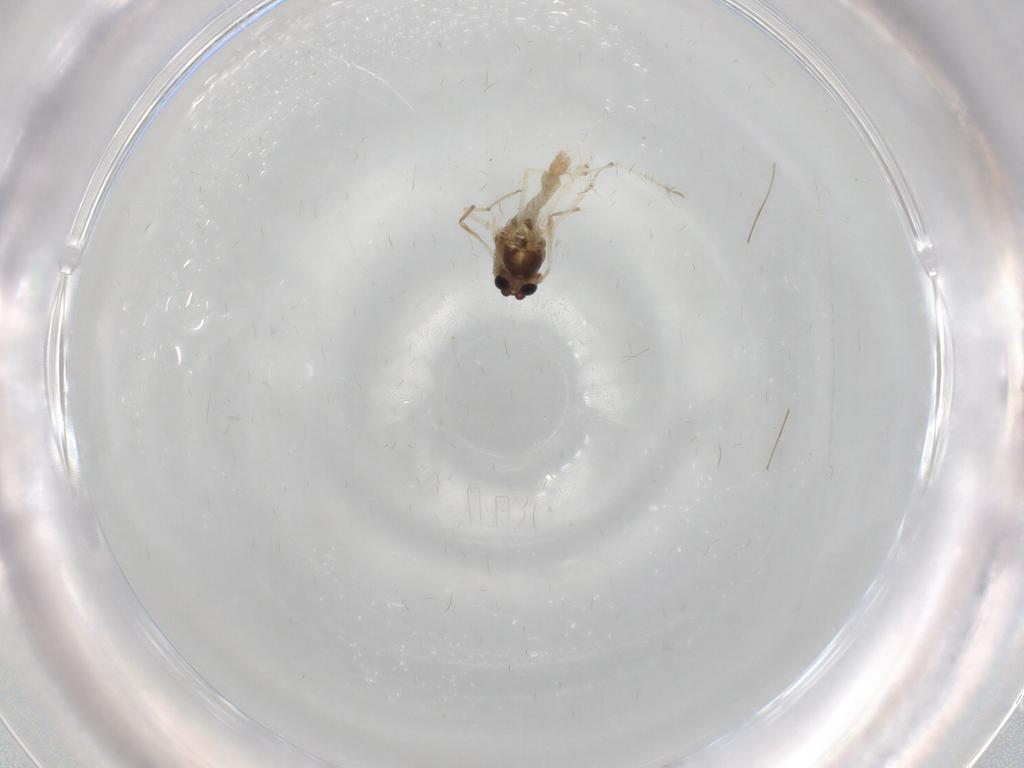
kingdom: Animalia
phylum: Arthropoda
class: Insecta
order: Diptera
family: Chironomidae
